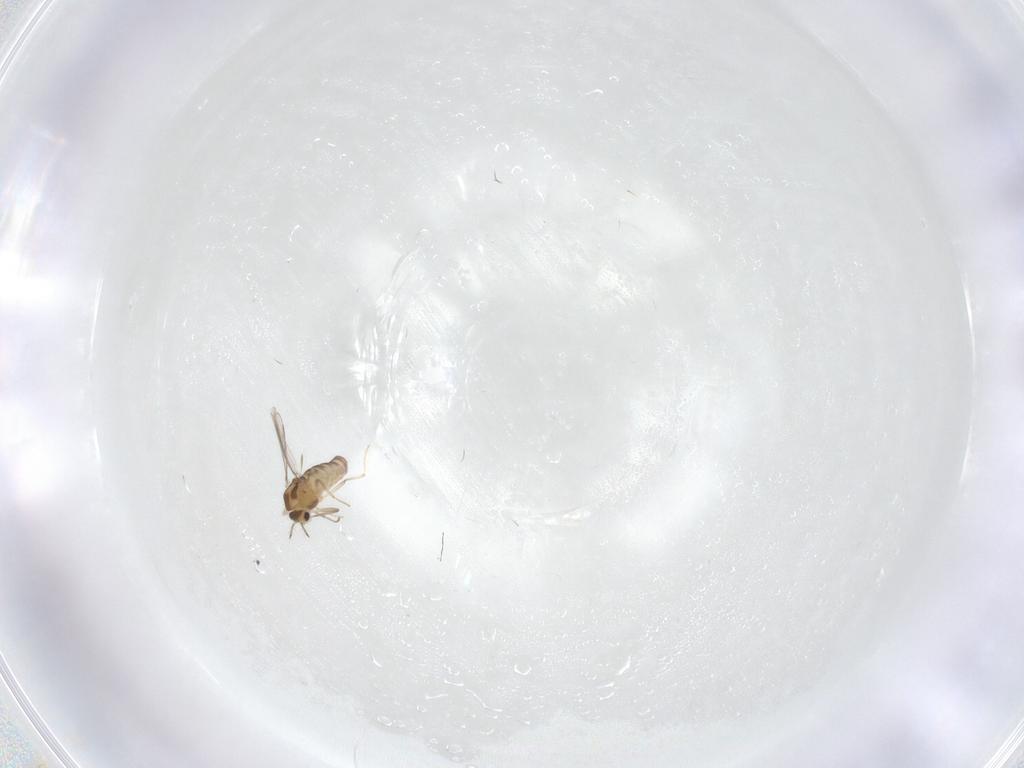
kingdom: Animalia
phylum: Arthropoda
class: Insecta
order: Diptera
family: Chironomidae
